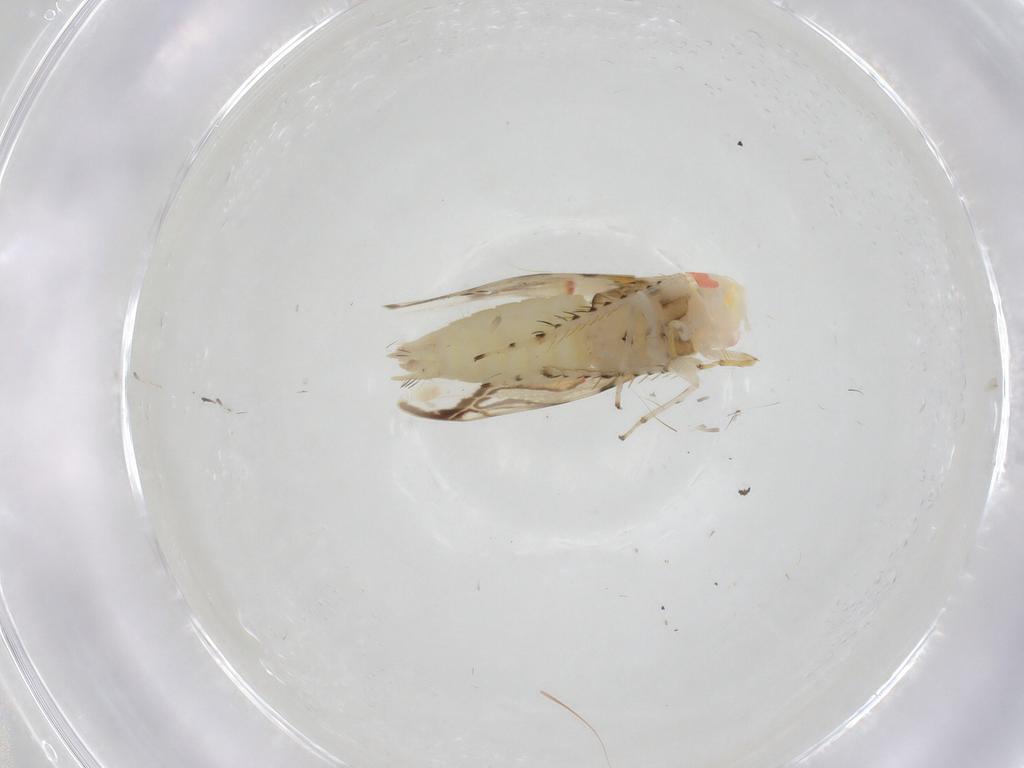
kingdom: Animalia
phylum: Arthropoda
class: Insecta
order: Hemiptera
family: Cicadellidae
